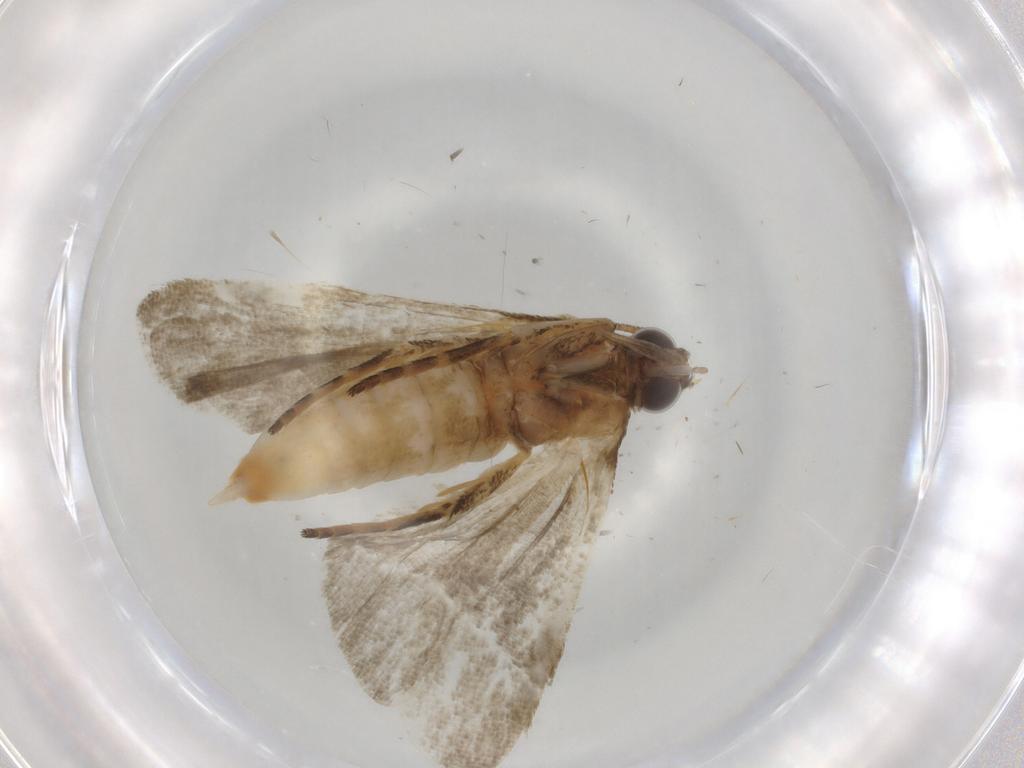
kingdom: Animalia
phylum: Arthropoda
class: Insecta
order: Lepidoptera
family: Noctuidae
